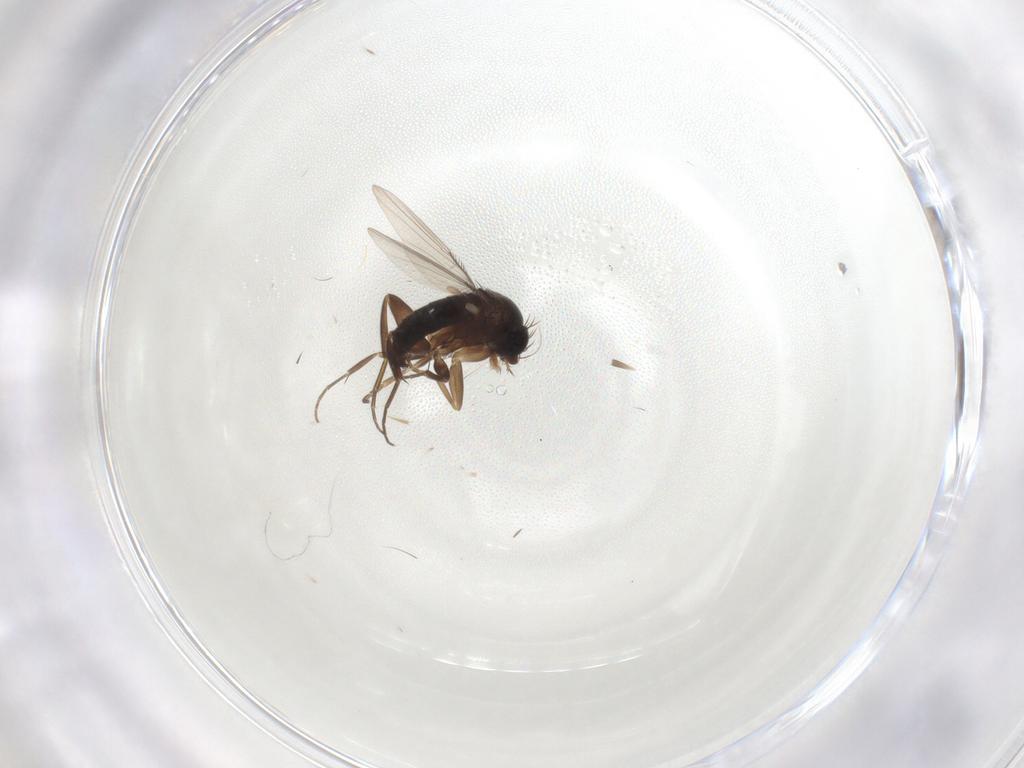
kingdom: Animalia
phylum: Arthropoda
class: Insecta
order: Diptera
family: Phoridae
